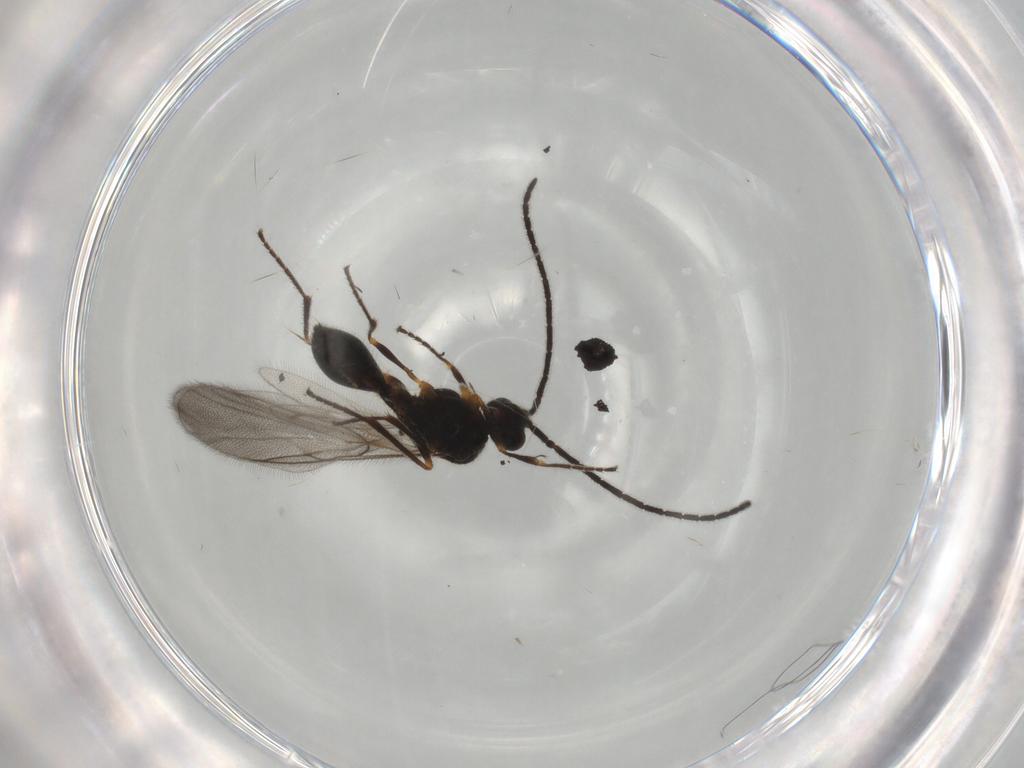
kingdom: Animalia
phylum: Arthropoda
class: Insecta
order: Hymenoptera
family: Diapriidae
